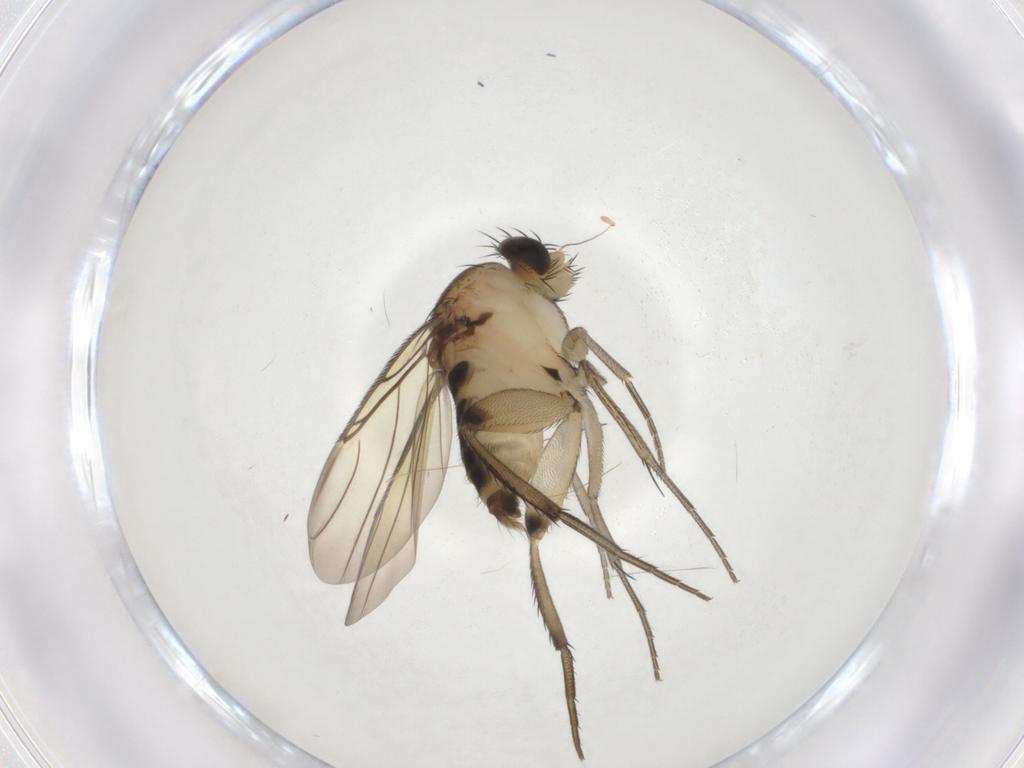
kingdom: Animalia
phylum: Arthropoda
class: Insecta
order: Diptera
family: Phoridae
